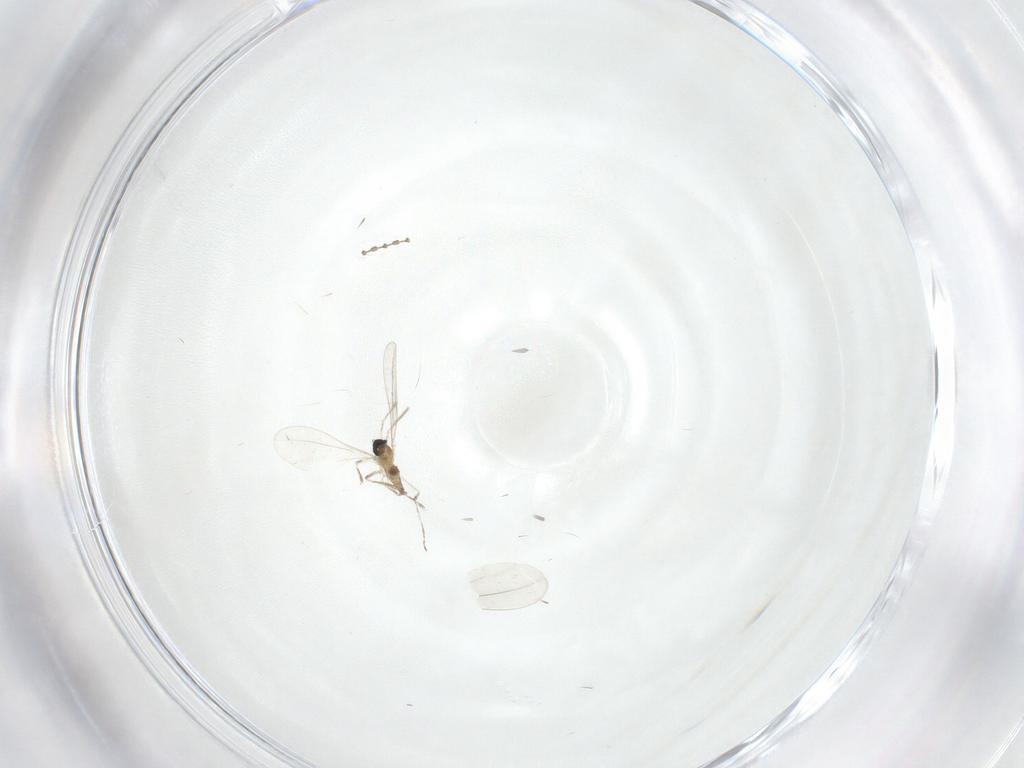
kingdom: Animalia
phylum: Arthropoda
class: Insecta
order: Diptera
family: Cecidomyiidae
